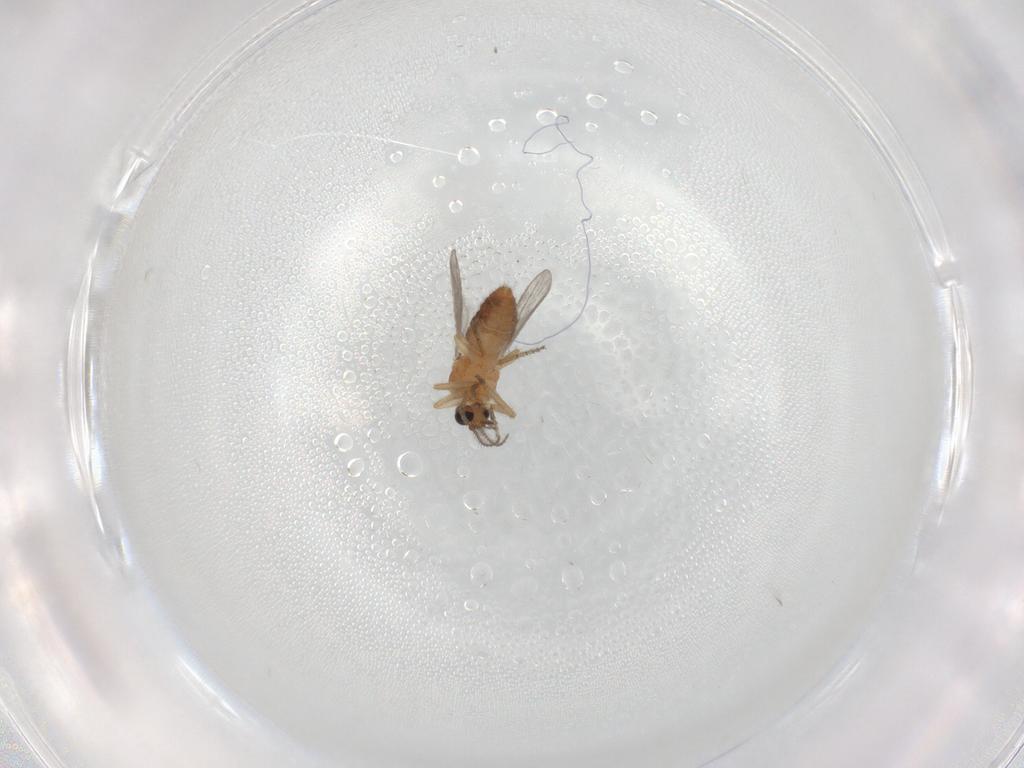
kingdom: Animalia
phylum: Arthropoda
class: Insecta
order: Diptera
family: Ceratopogonidae
